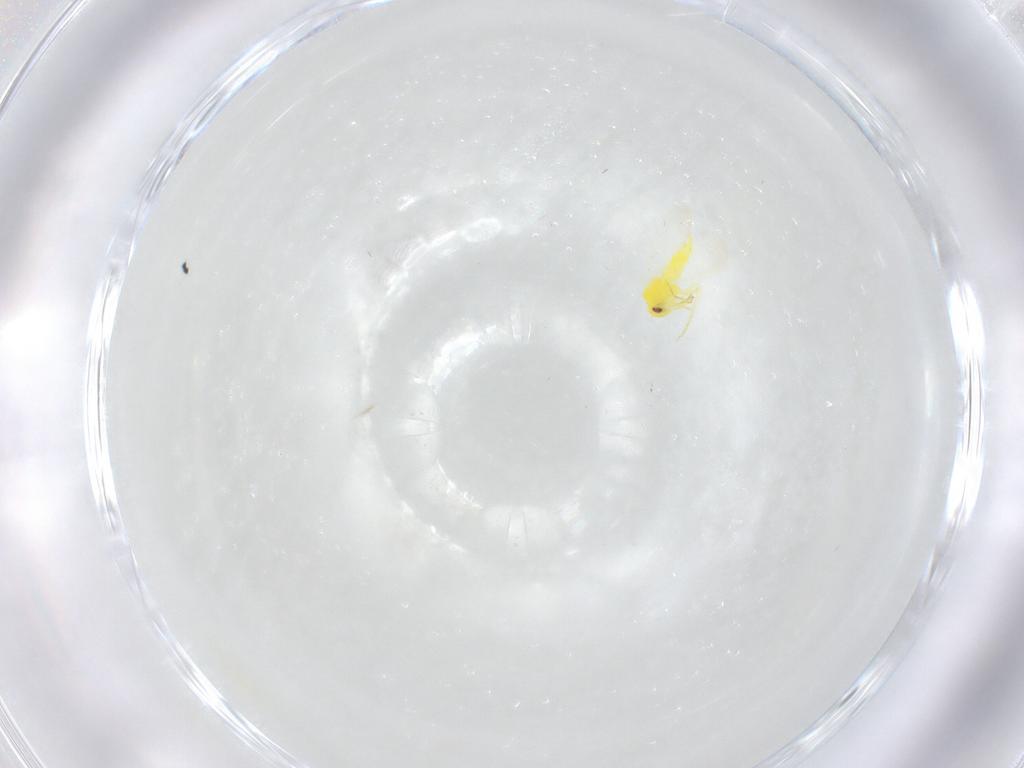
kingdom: Animalia
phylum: Arthropoda
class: Insecta
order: Hemiptera
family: Aleyrodidae
